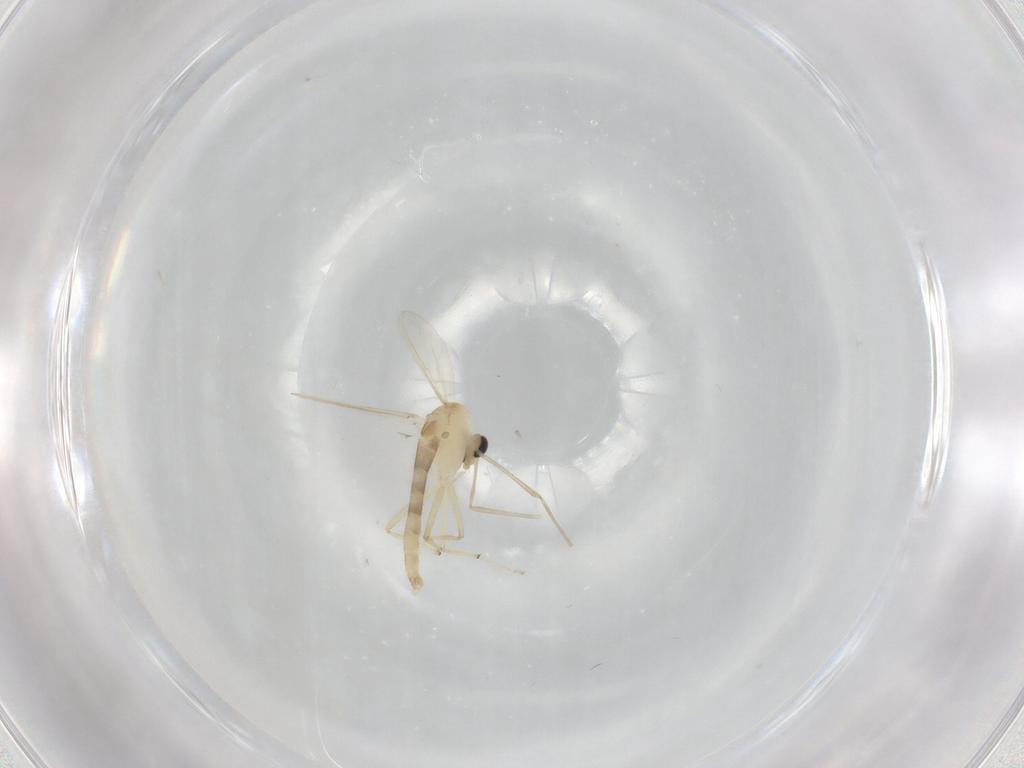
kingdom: Animalia
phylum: Arthropoda
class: Insecta
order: Diptera
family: Chironomidae
